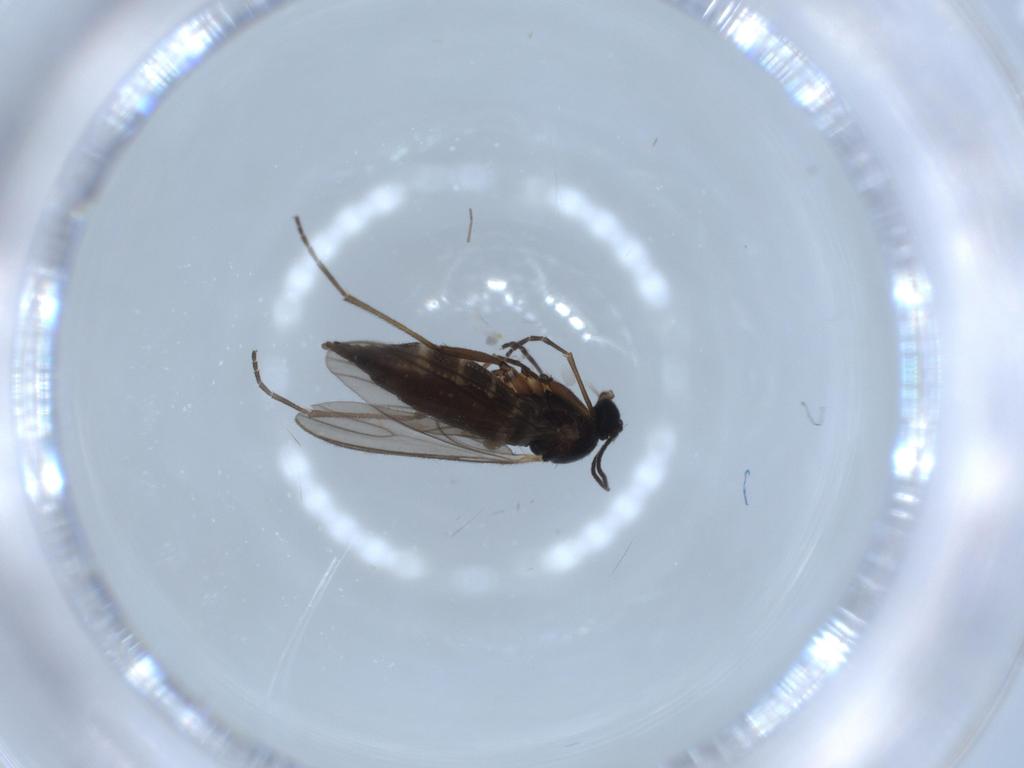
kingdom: Animalia
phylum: Arthropoda
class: Insecta
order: Diptera
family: Sciaridae
